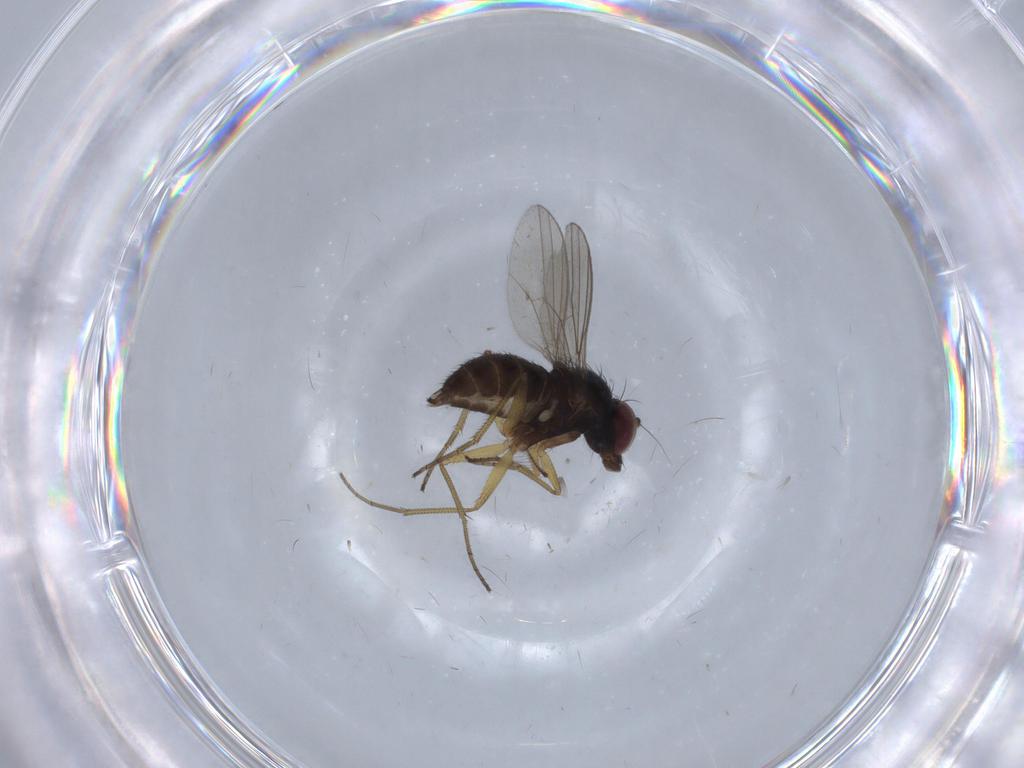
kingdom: Animalia
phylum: Arthropoda
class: Insecta
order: Diptera
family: Dolichopodidae
